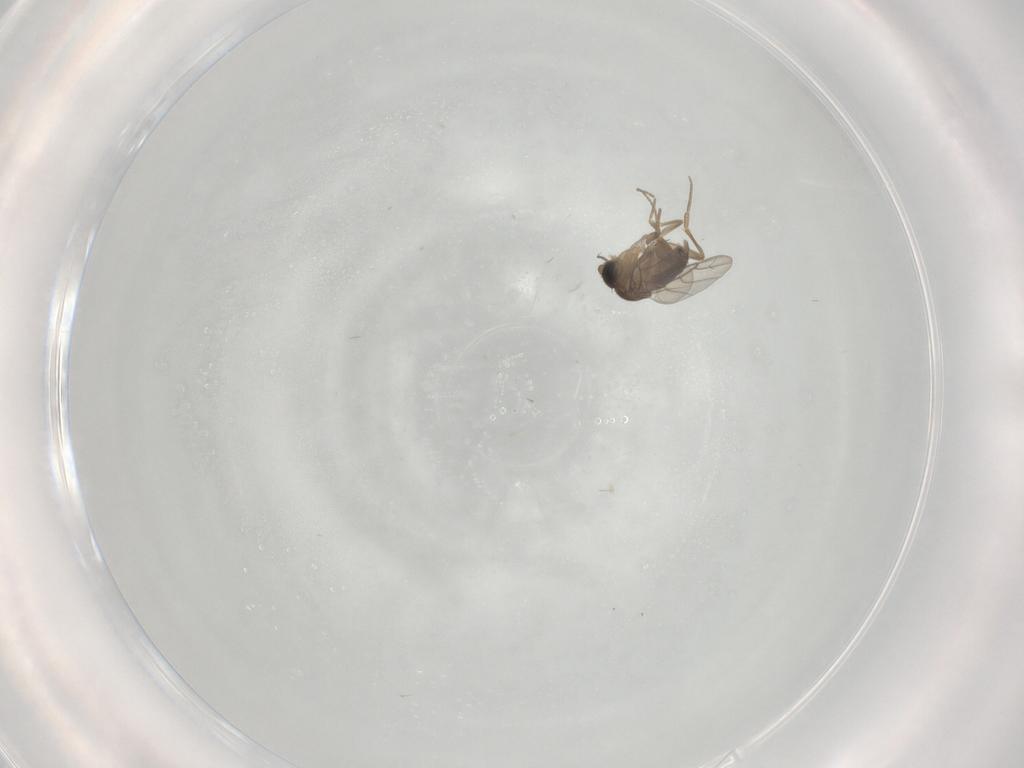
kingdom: Animalia
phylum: Arthropoda
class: Insecta
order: Diptera
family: Phoridae
